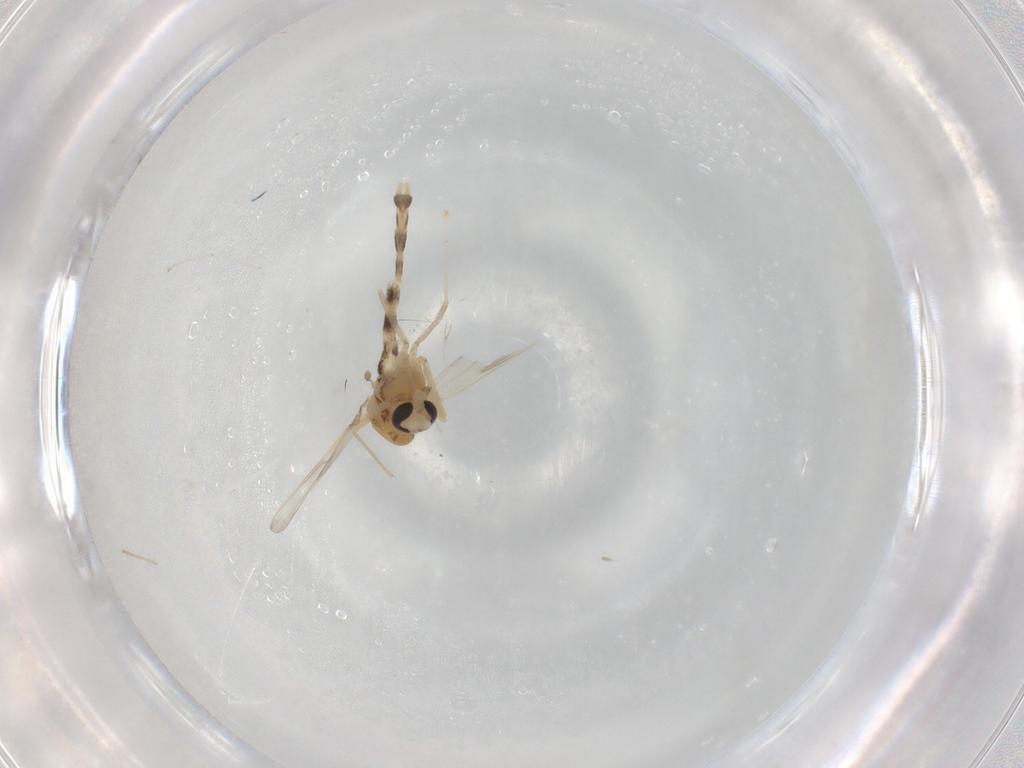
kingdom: Animalia
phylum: Arthropoda
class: Insecta
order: Diptera
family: Chironomidae
